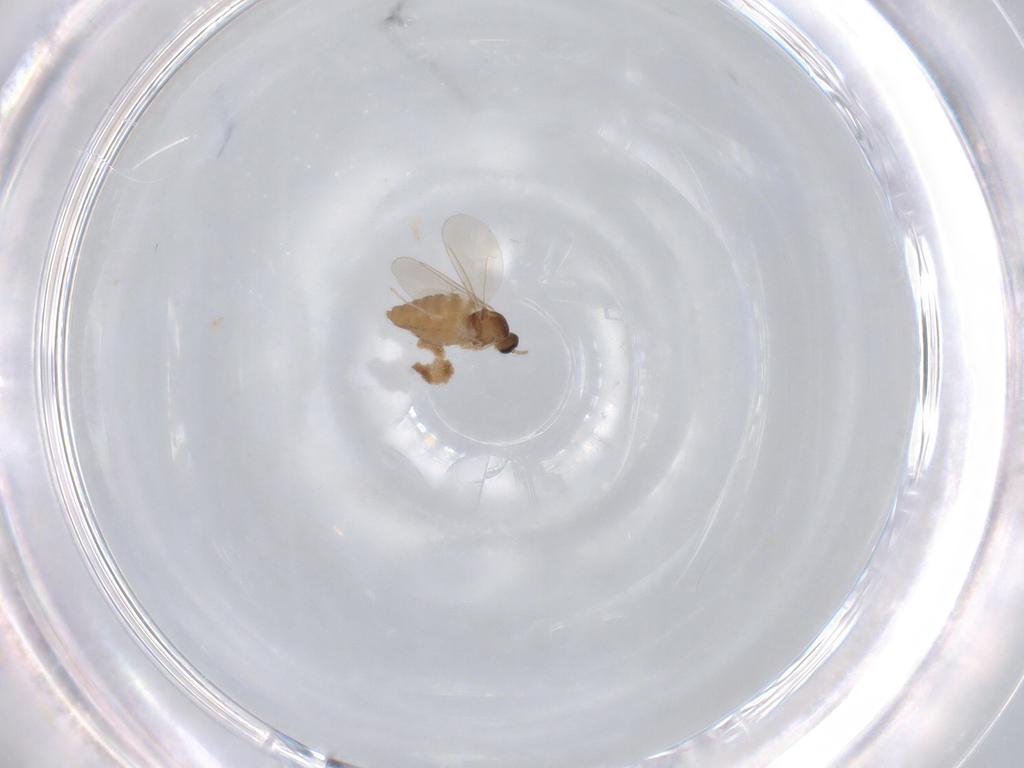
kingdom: Animalia
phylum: Arthropoda
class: Insecta
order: Diptera
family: Cecidomyiidae
